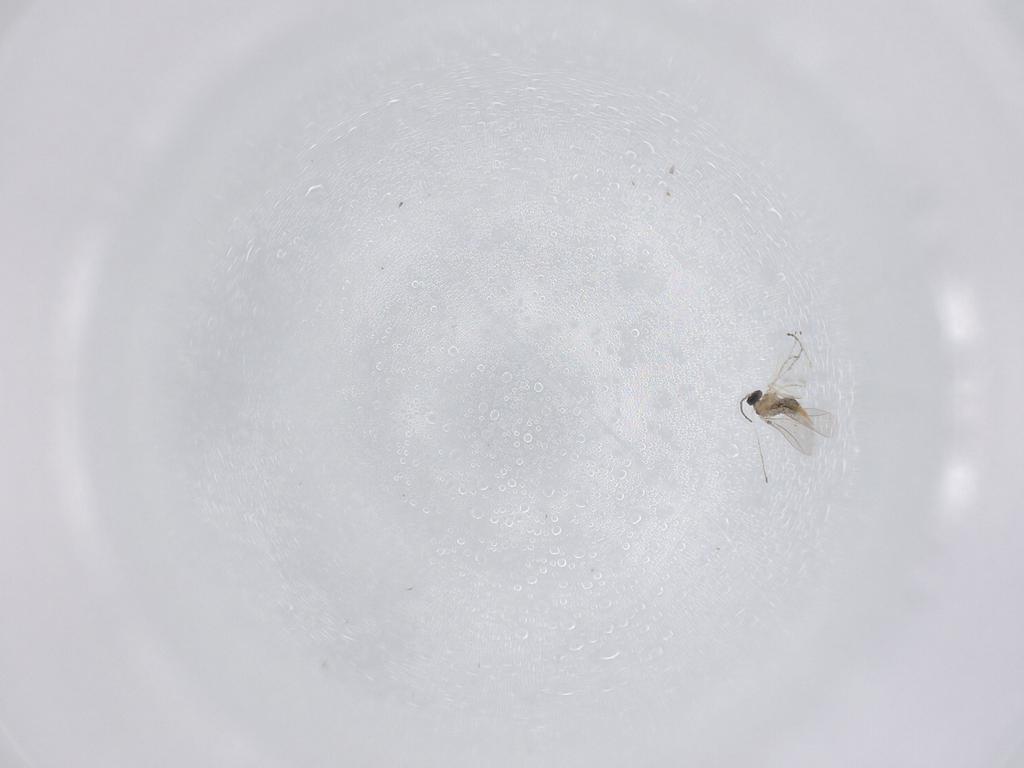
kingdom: Animalia
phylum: Arthropoda
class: Insecta
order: Diptera
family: Cecidomyiidae
